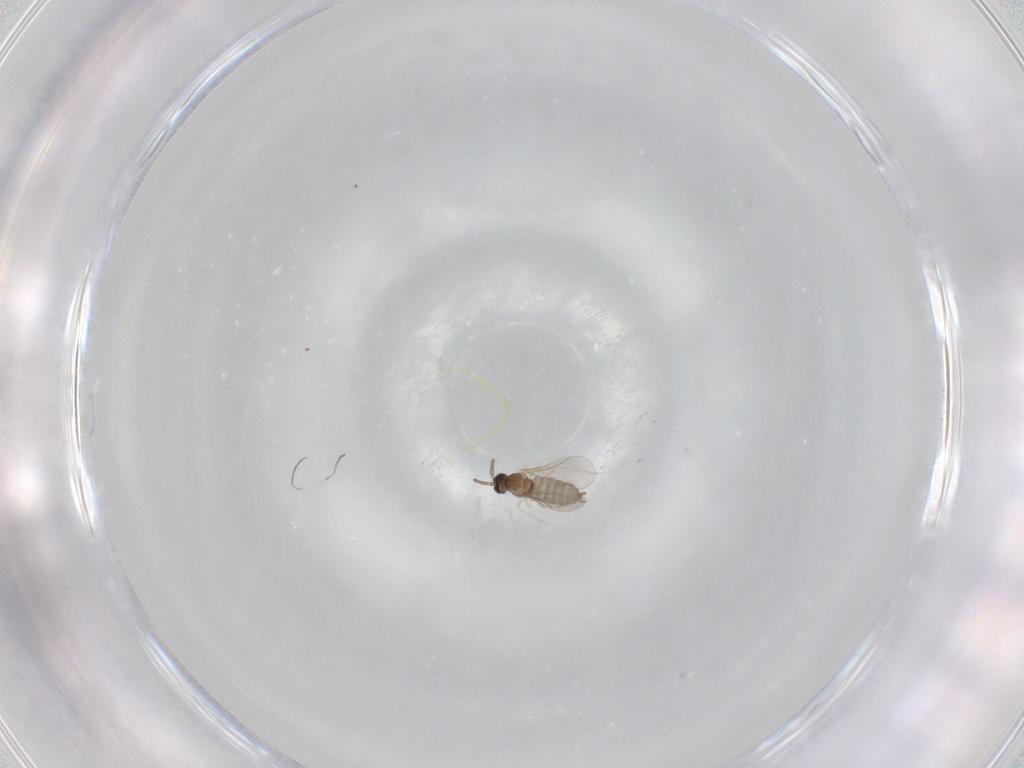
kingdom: Animalia
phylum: Arthropoda
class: Insecta
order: Diptera
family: Cecidomyiidae
